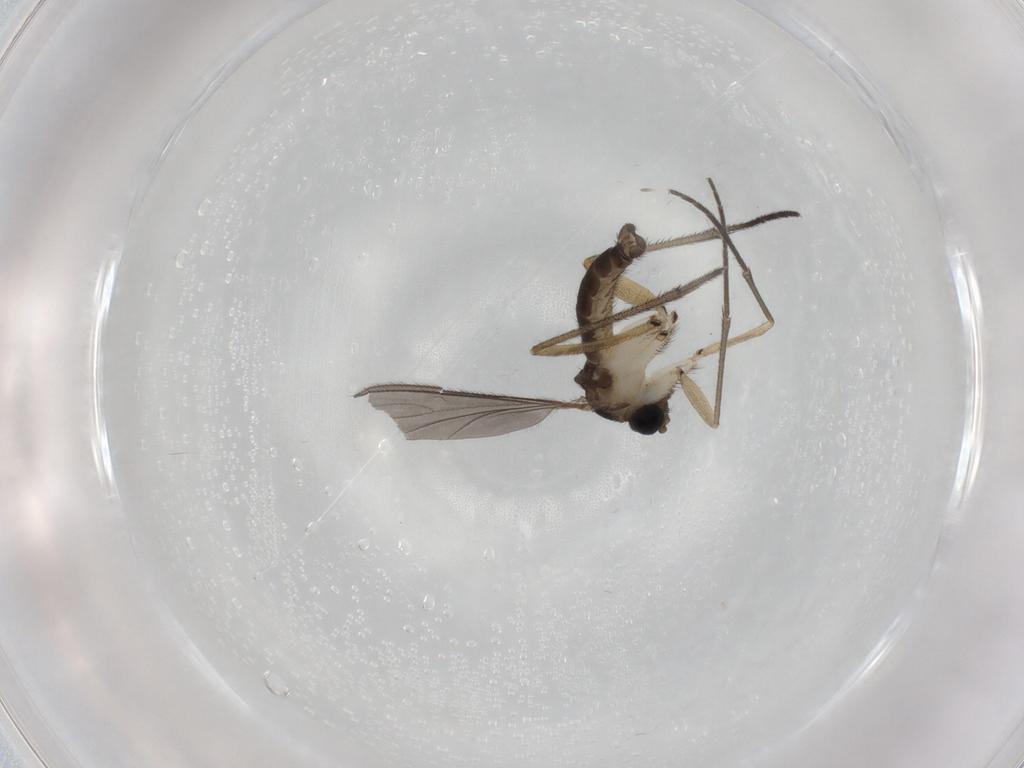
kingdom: Animalia
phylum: Arthropoda
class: Insecta
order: Diptera
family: Sciaridae
